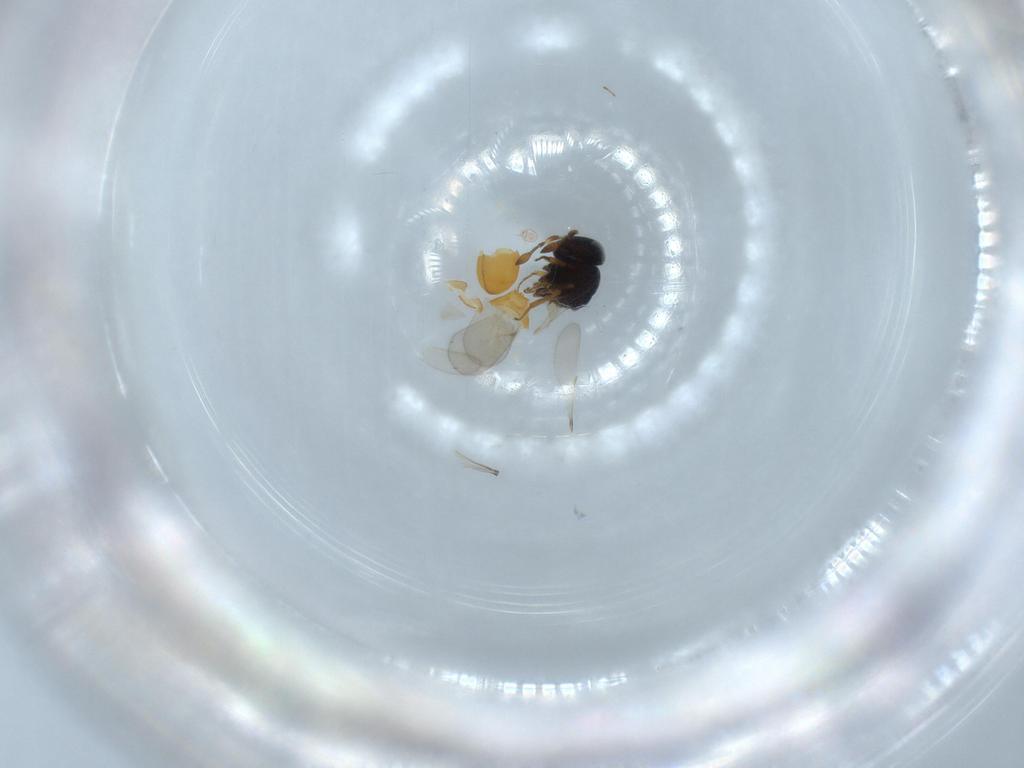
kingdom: Animalia
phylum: Arthropoda
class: Insecta
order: Hymenoptera
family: Scelionidae
